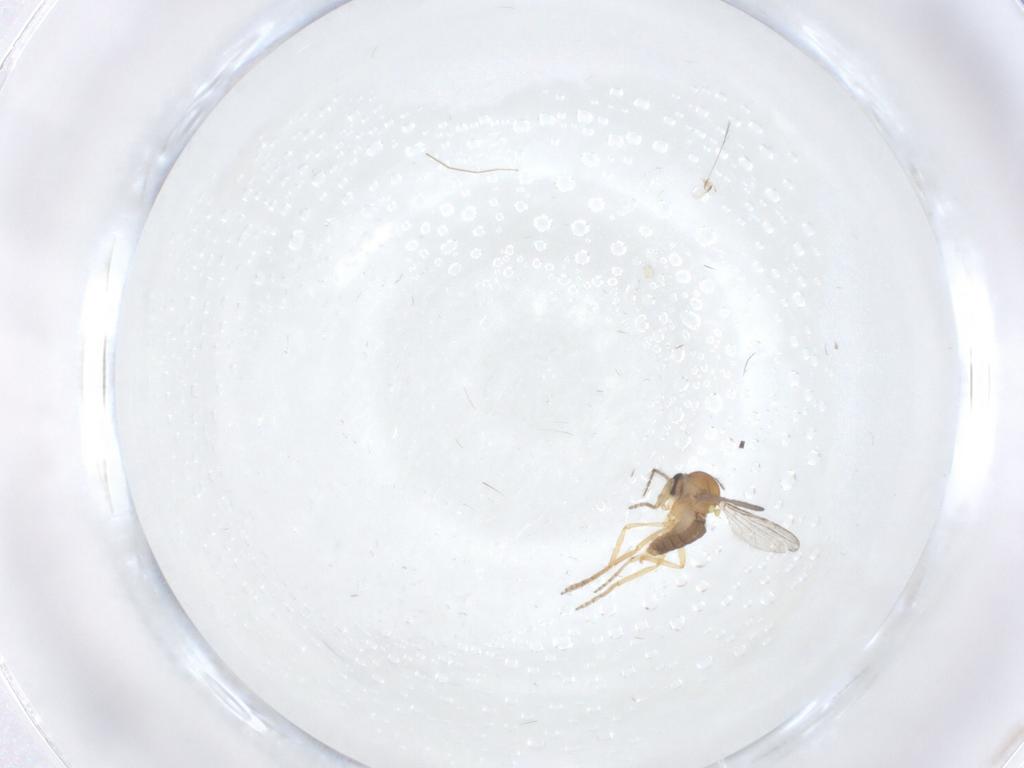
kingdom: Animalia
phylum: Arthropoda
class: Insecta
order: Diptera
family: Ceratopogonidae
